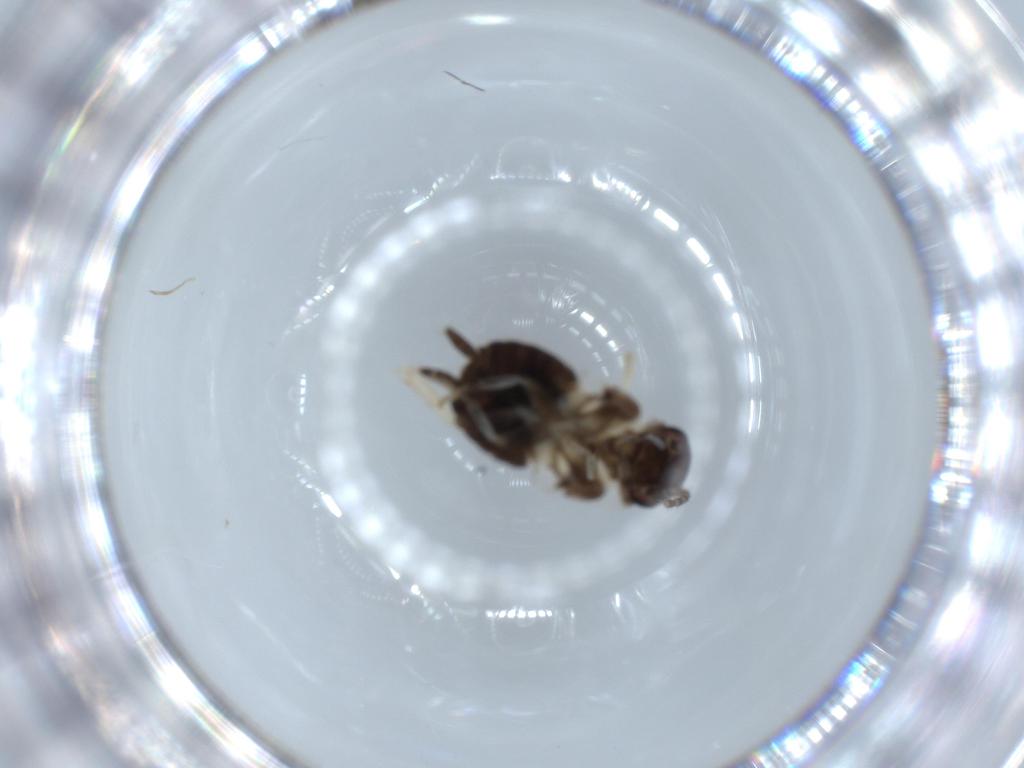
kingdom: Animalia
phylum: Arthropoda
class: Insecta
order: Blattodea
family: Ectobiidae
